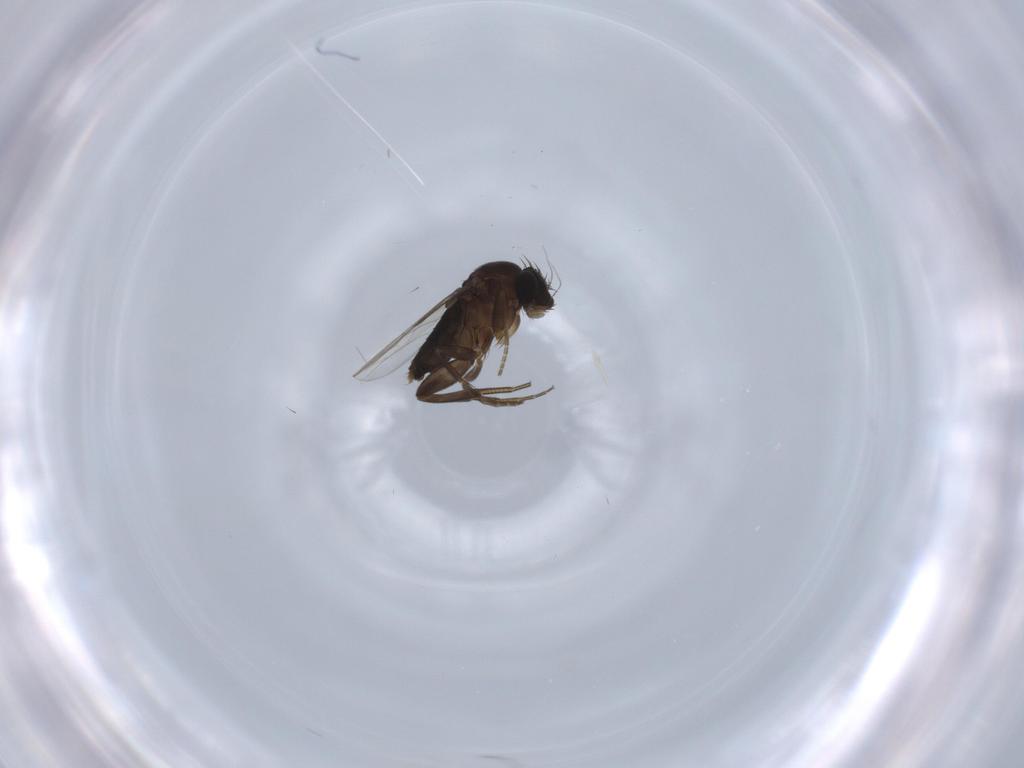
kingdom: Animalia
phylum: Arthropoda
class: Insecta
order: Diptera
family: Phoridae
